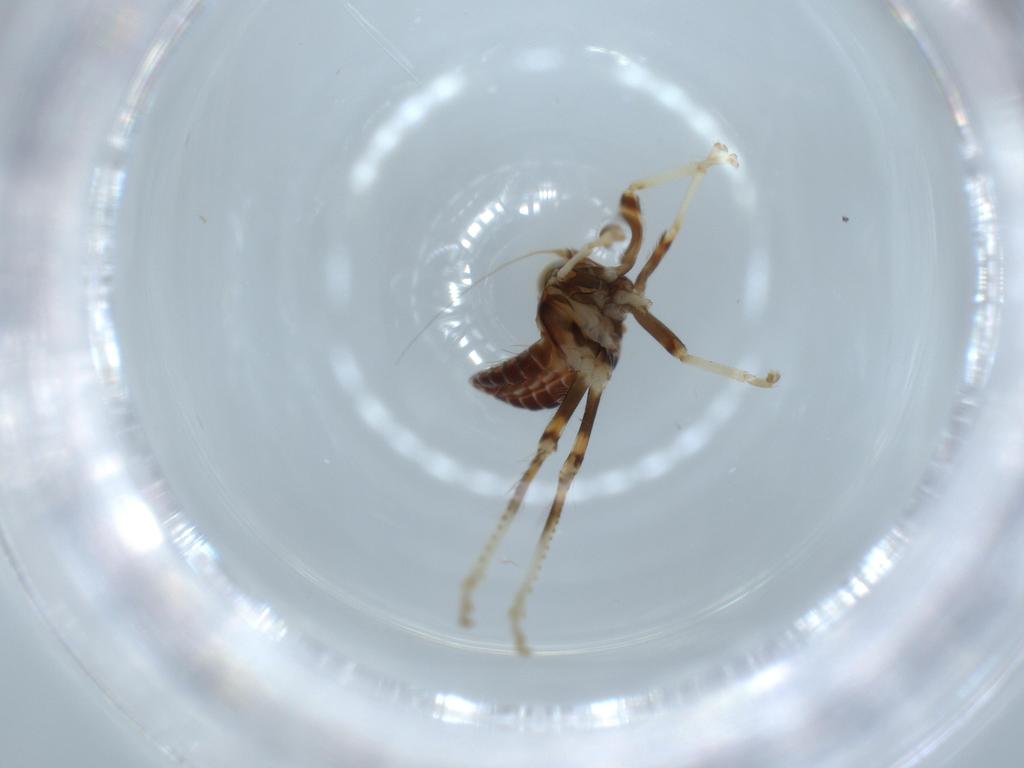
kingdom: Animalia
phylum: Arthropoda
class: Insecta
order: Hemiptera
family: Cicadellidae
